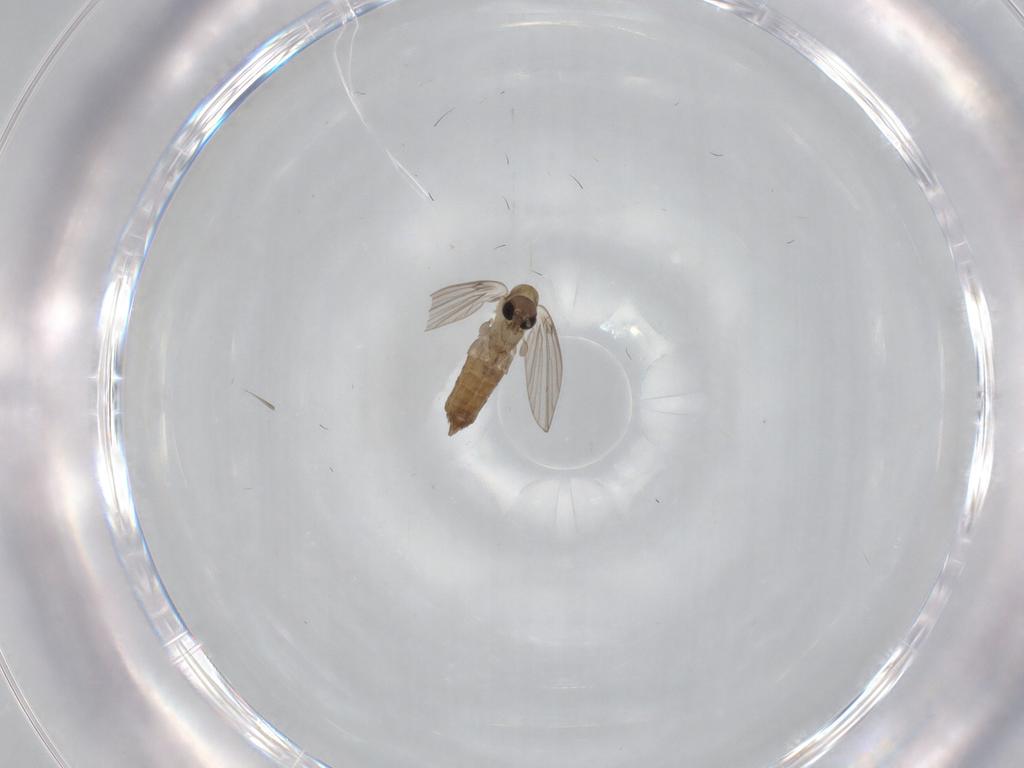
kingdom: Animalia
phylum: Arthropoda
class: Insecta
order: Diptera
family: Psychodidae
